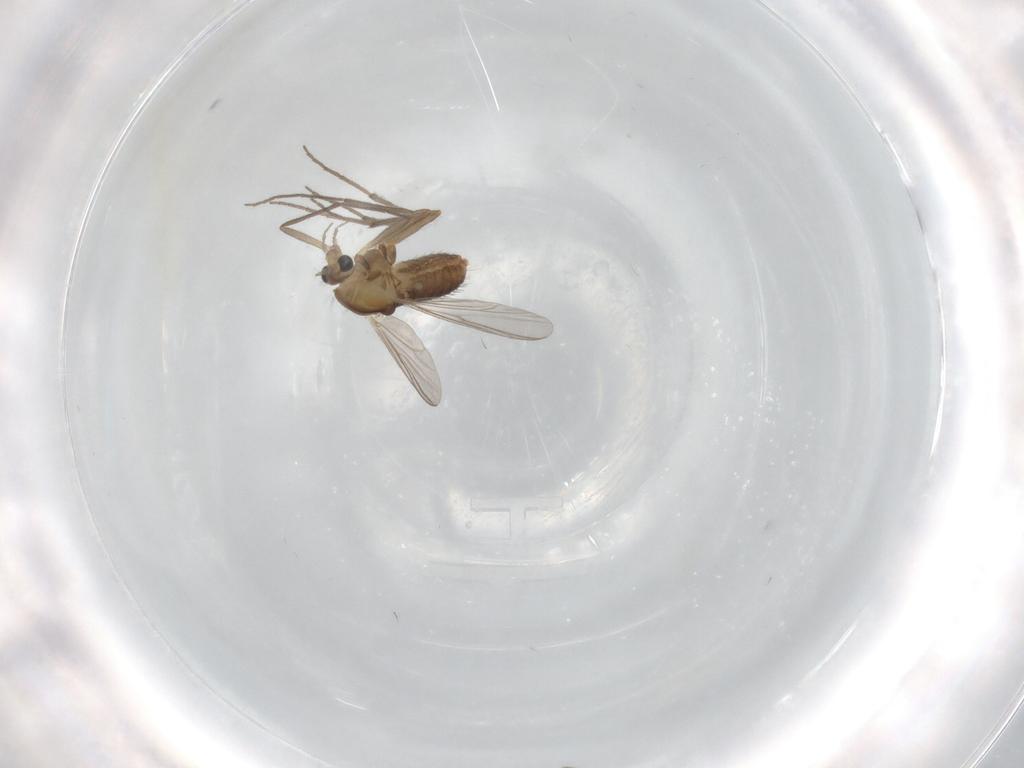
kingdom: Animalia
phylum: Arthropoda
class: Insecta
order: Diptera
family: Chironomidae
